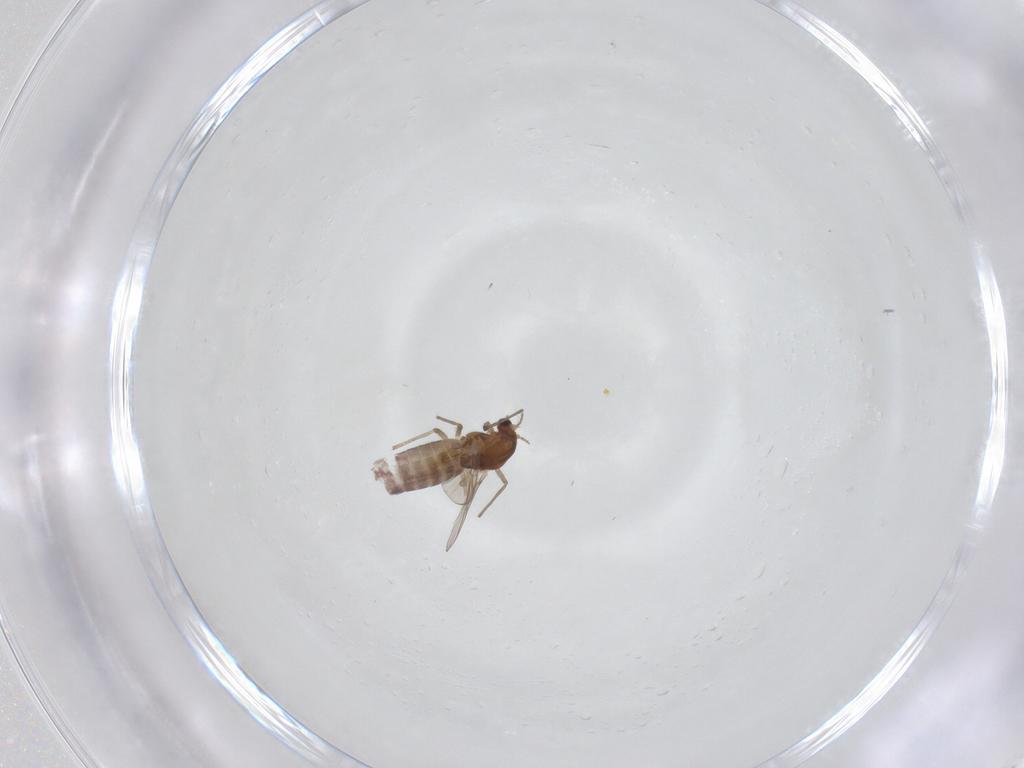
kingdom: Animalia
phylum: Arthropoda
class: Insecta
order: Diptera
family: Chironomidae
